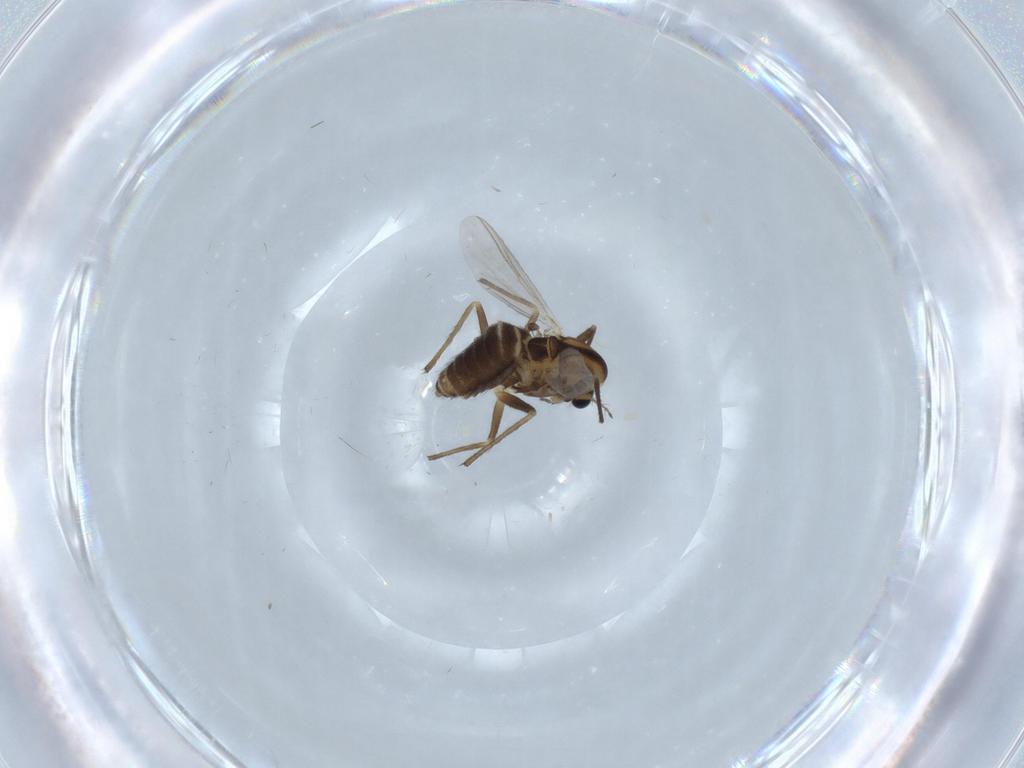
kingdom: Animalia
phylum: Arthropoda
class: Insecta
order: Diptera
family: Chironomidae
